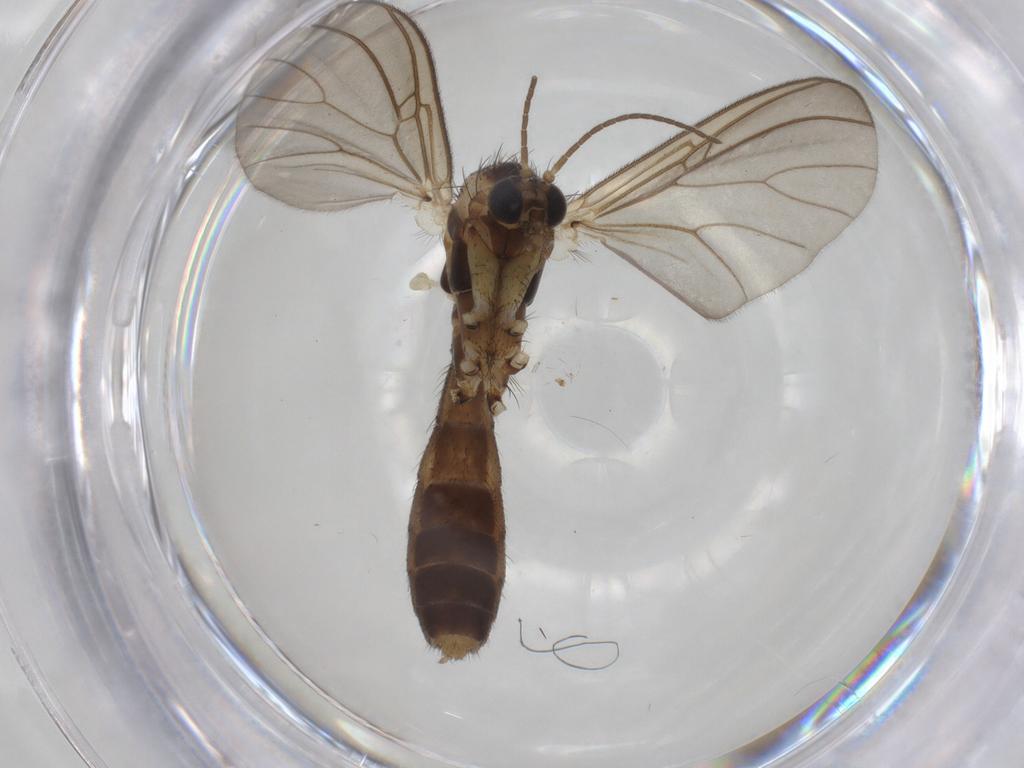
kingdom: Animalia
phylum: Arthropoda
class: Insecta
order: Diptera
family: Mycetophilidae
